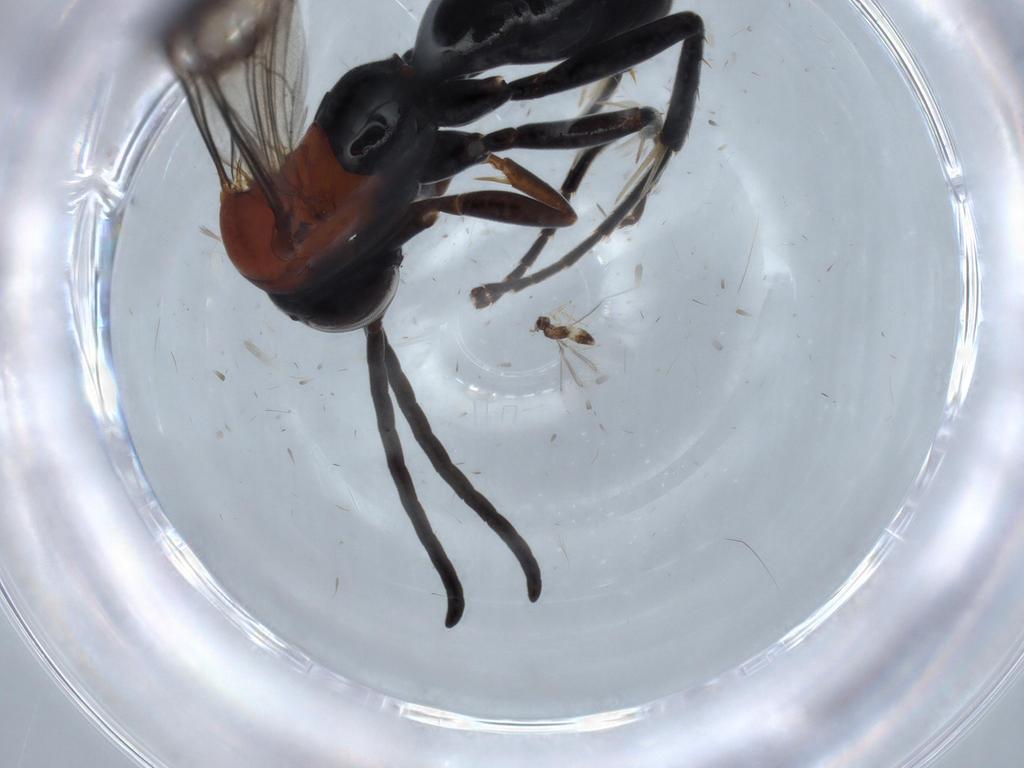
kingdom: Animalia
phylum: Arthropoda
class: Insecta
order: Hymenoptera
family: Pompilidae
